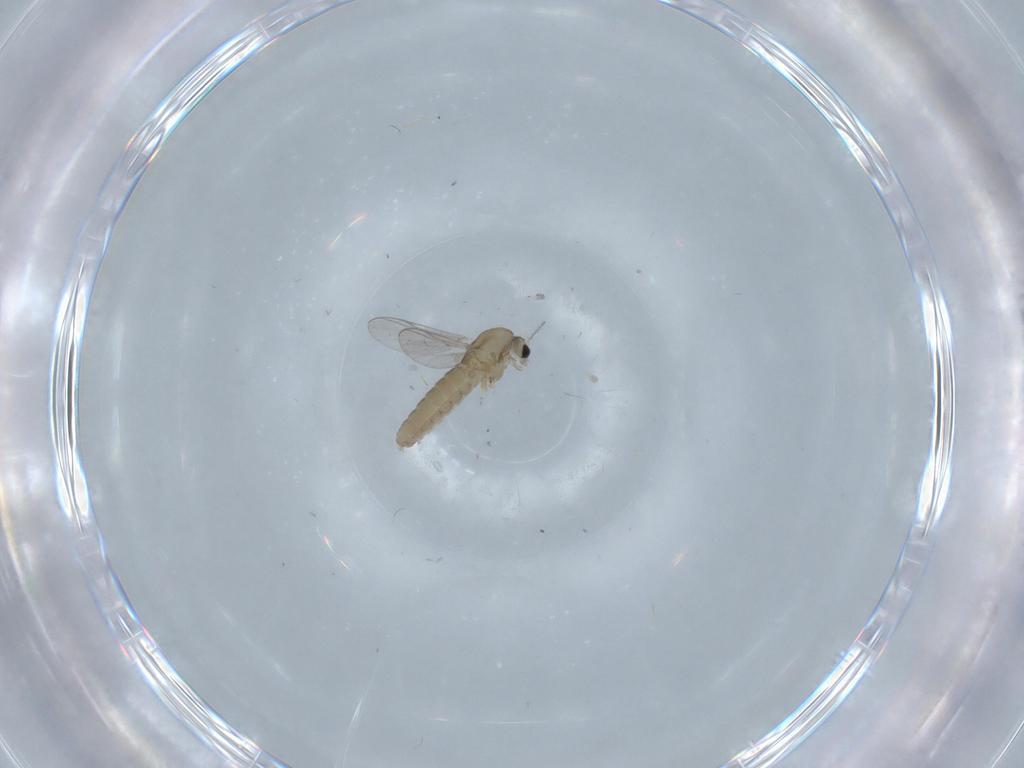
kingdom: Animalia
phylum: Arthropoda
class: Insecta
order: Diptera
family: Chironomidae
